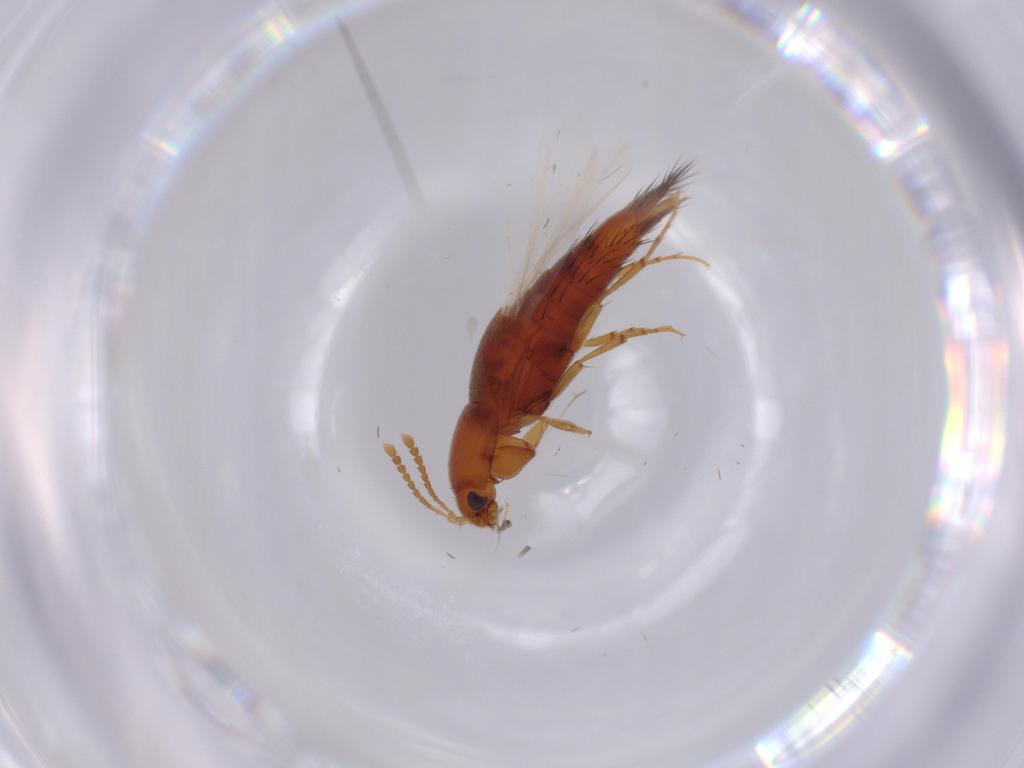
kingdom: Animalia
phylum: Arthropoda
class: Insecta
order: Coleoptera
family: Staphylinidae
